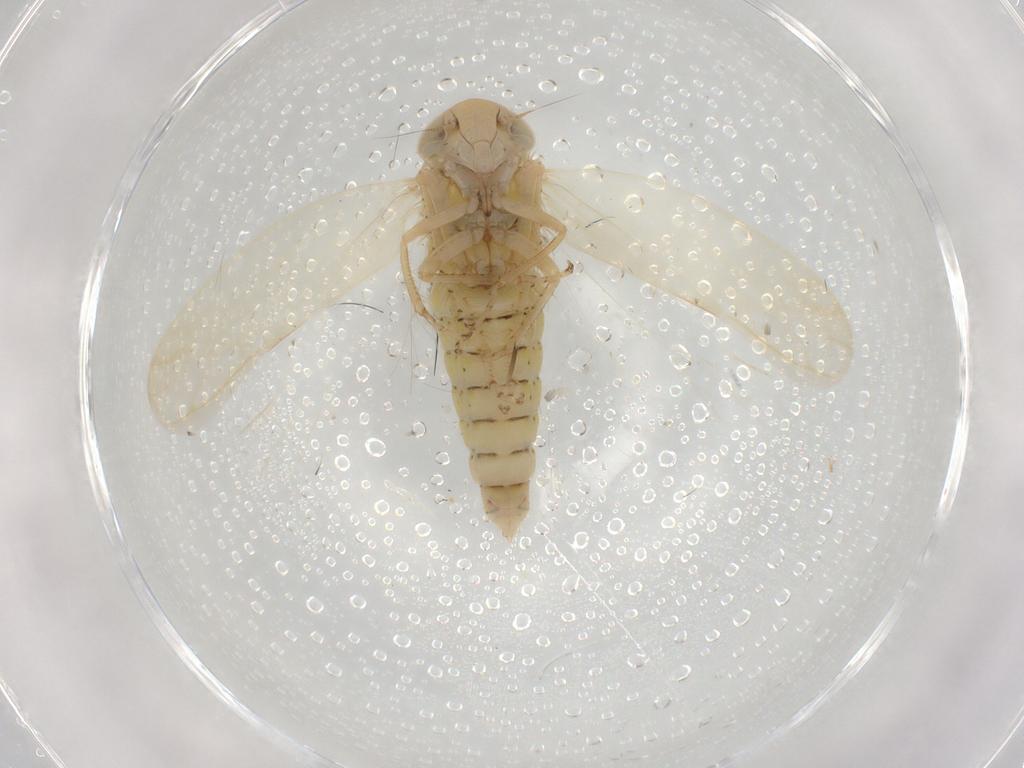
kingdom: Animalia
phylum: Arthropoda
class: Insecta
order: Hemiptera
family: Cicadellidae
